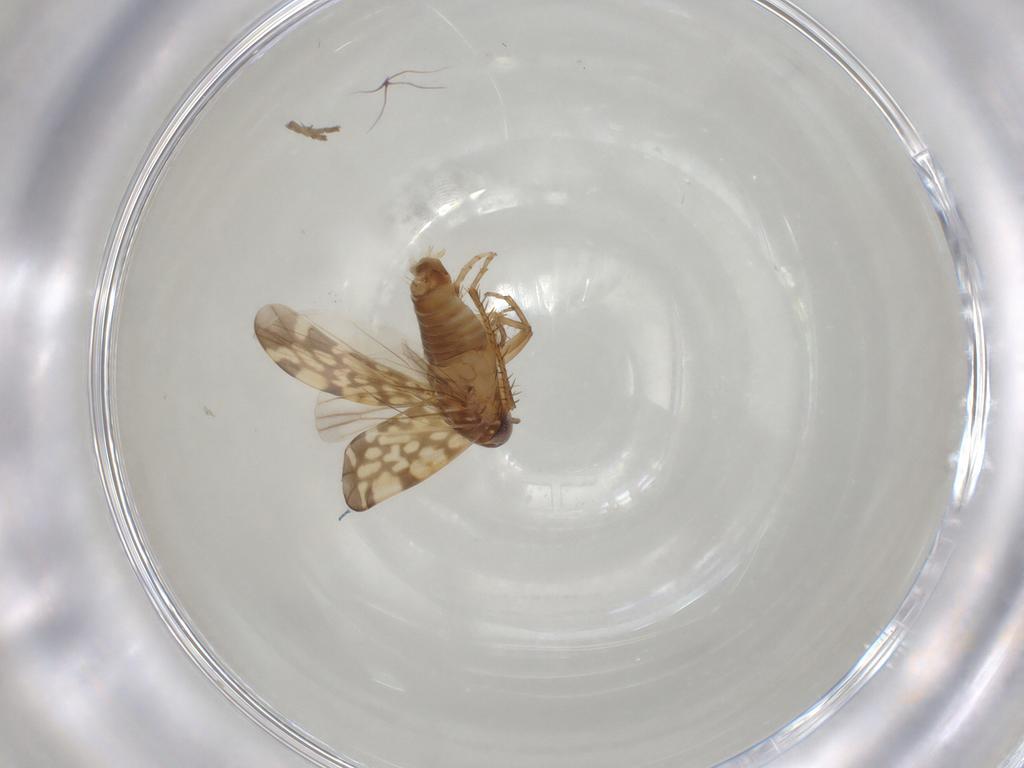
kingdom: Animalia
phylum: Arthropoda
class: Insecta
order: Hemiptera
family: Cicadellidae
